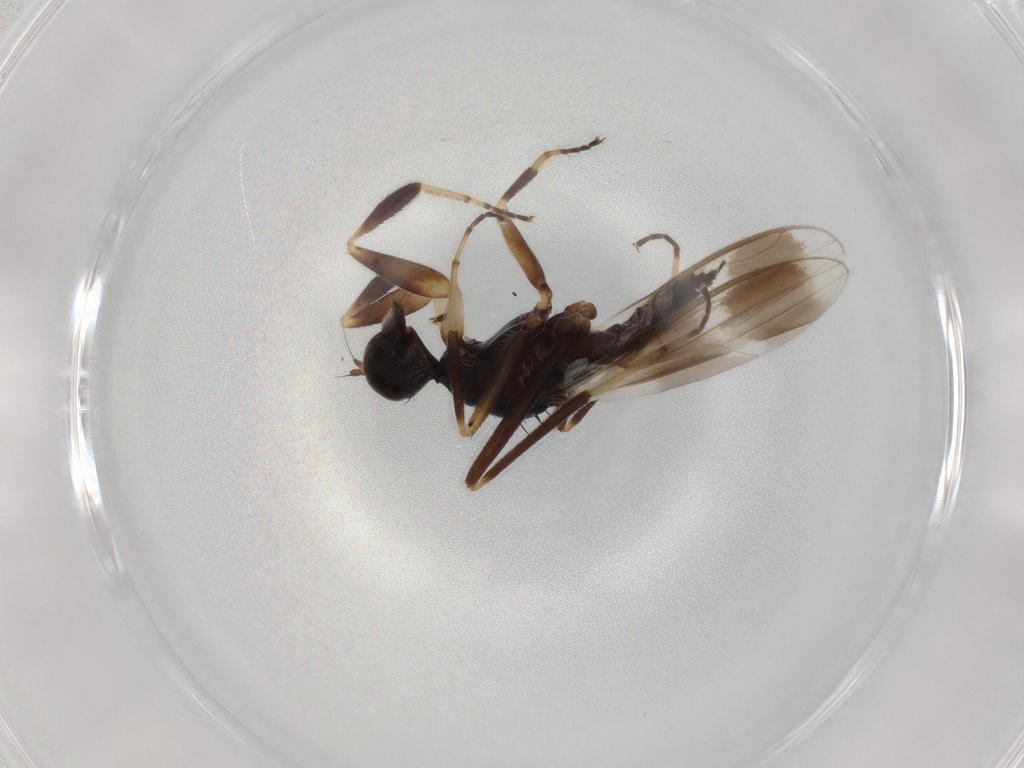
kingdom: Animalia
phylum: Arthropoda
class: Insecta
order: Diptera
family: Hybotidae
